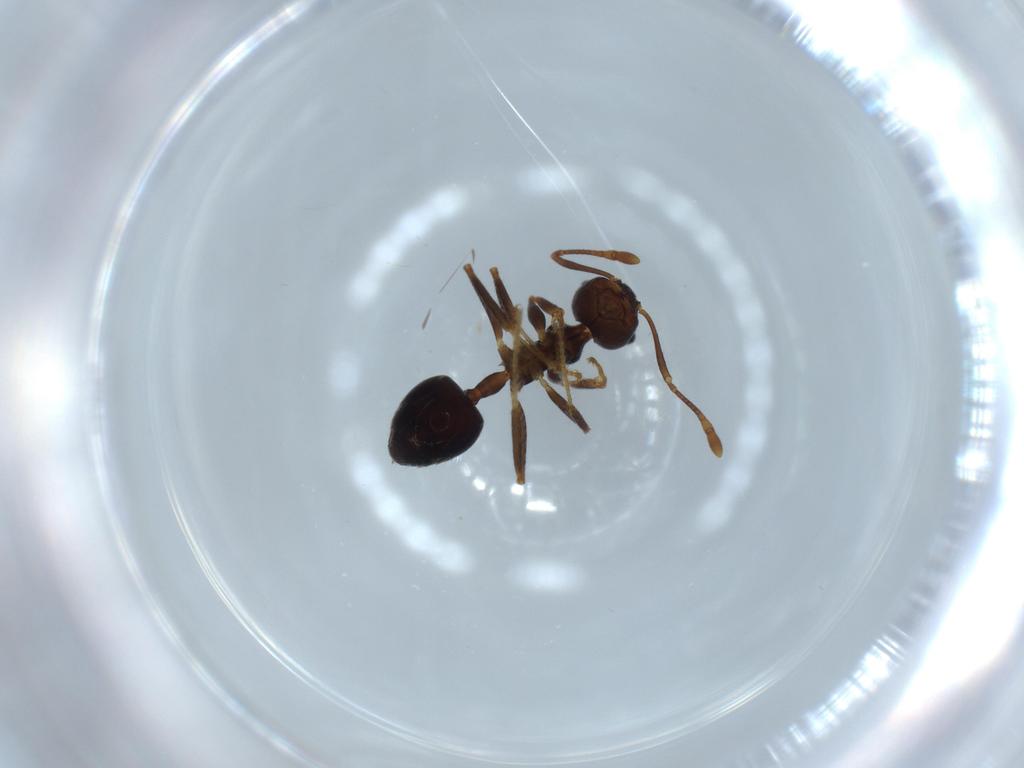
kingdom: Animalia
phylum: Arthropoda
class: Insecta
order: Hymenoptera
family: Formicidae
